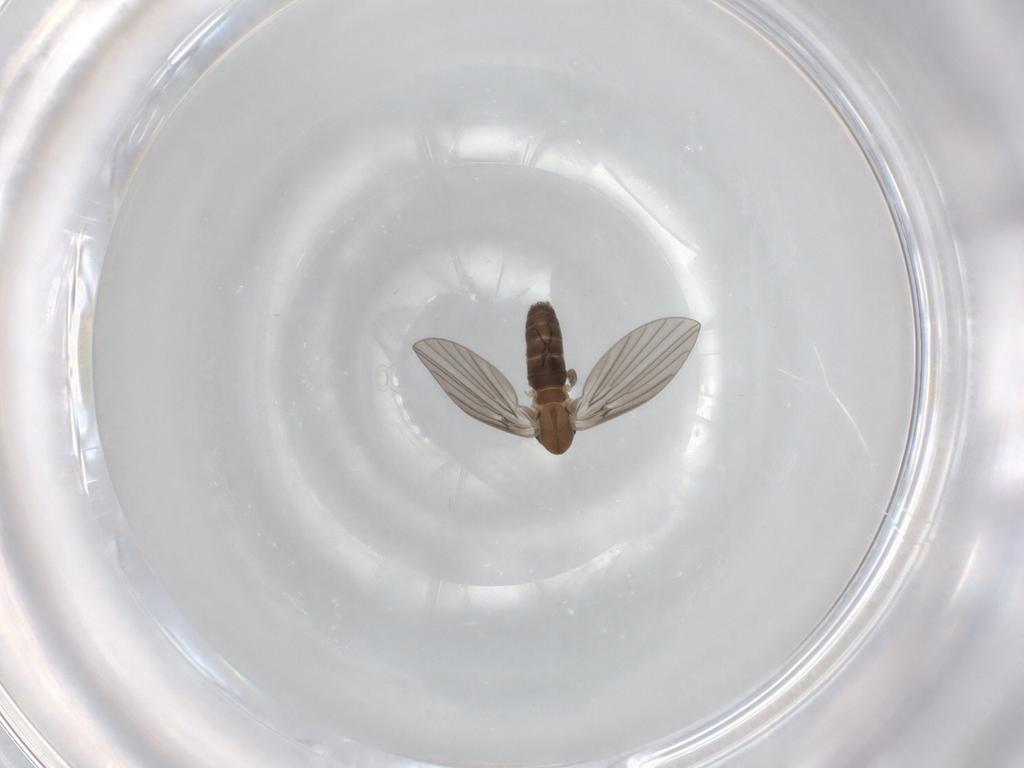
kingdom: Animalia
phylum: Arthropoda
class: Insecta
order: Diptera
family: Psychodidae
